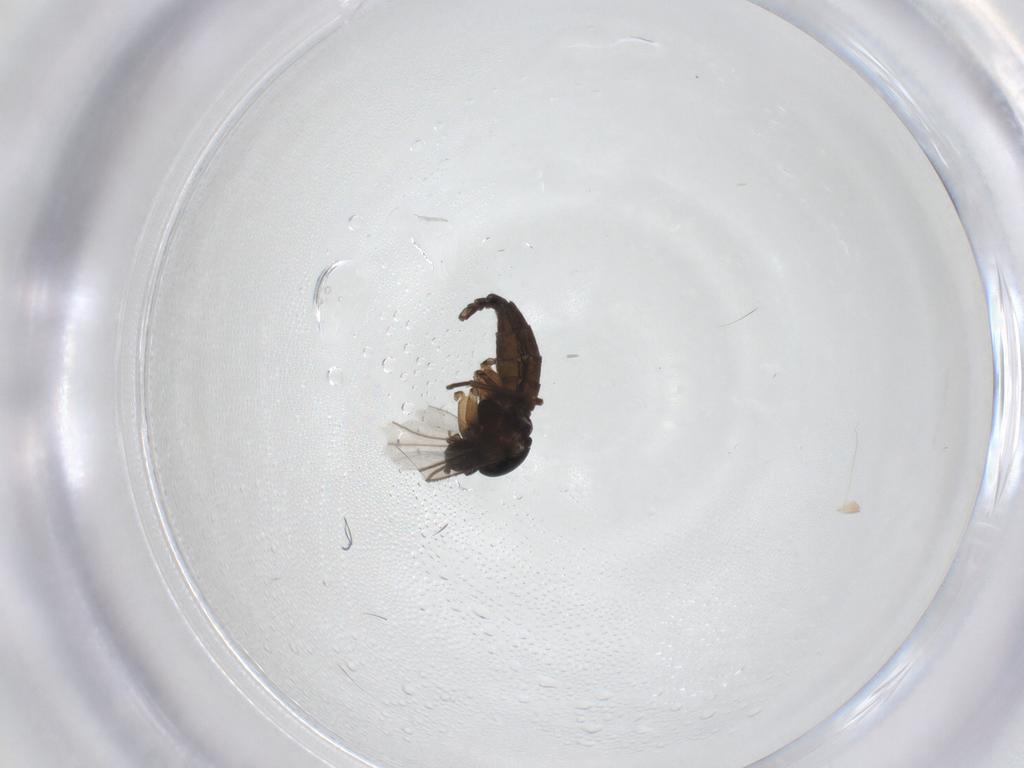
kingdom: Animalia
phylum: Arthropoda
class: Insecta
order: Diptera
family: Sciaridae
